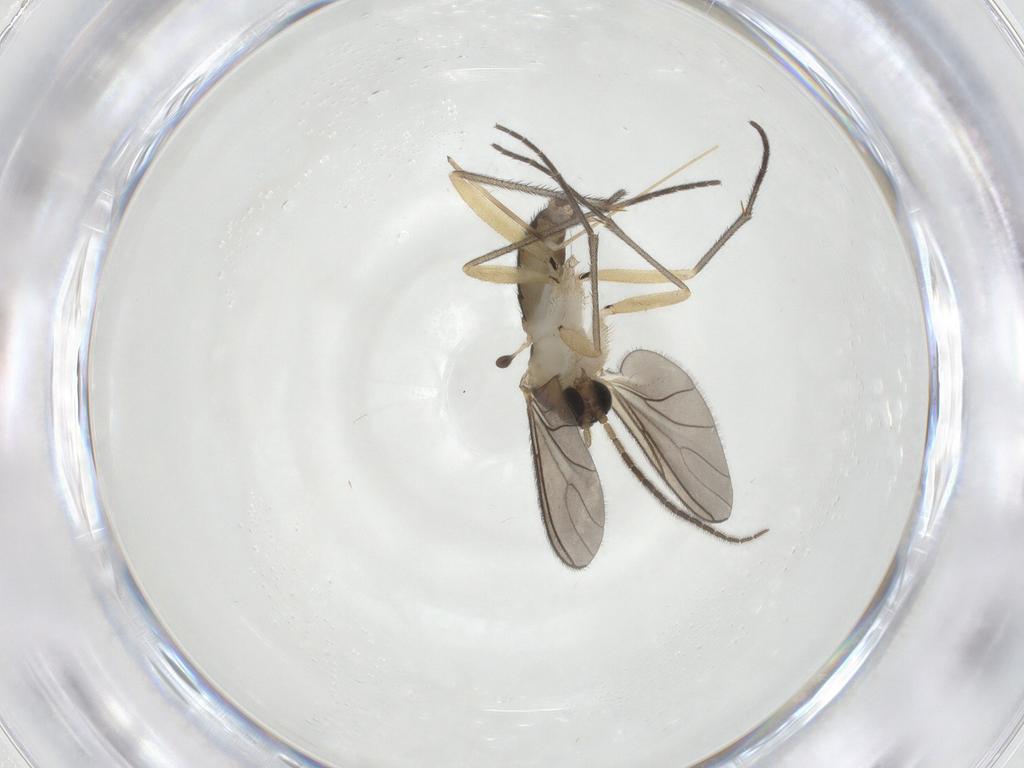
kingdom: Animalia
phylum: Arthropoda
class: Insecta
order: Diptera
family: Sciaridae
